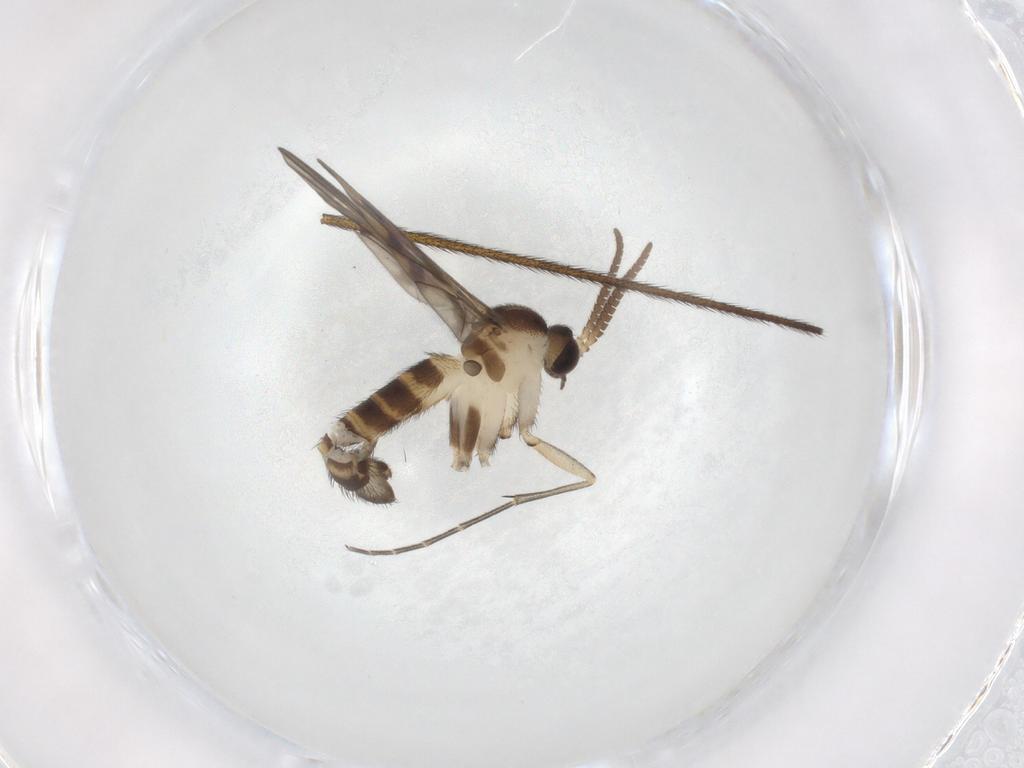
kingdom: Animalia
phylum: Arthropoda
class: Insecta
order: Diptera
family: Keroplatidae
